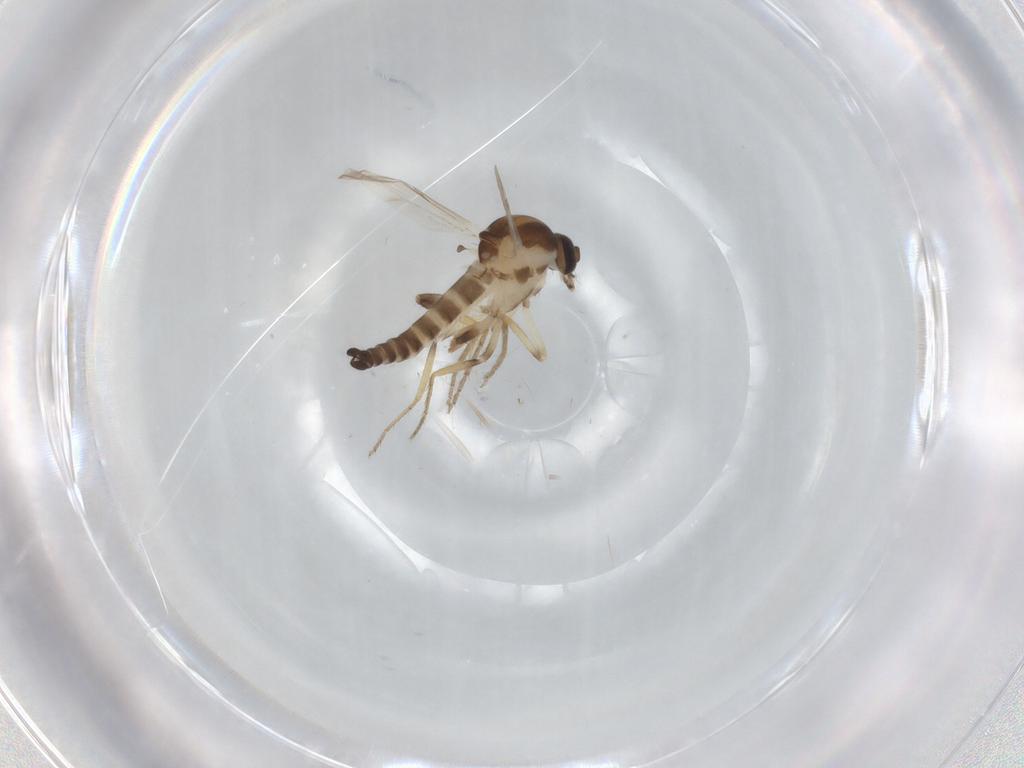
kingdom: Animalia
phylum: Arthropoda
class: Insecta
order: Diptera
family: Ceratopogonidae
